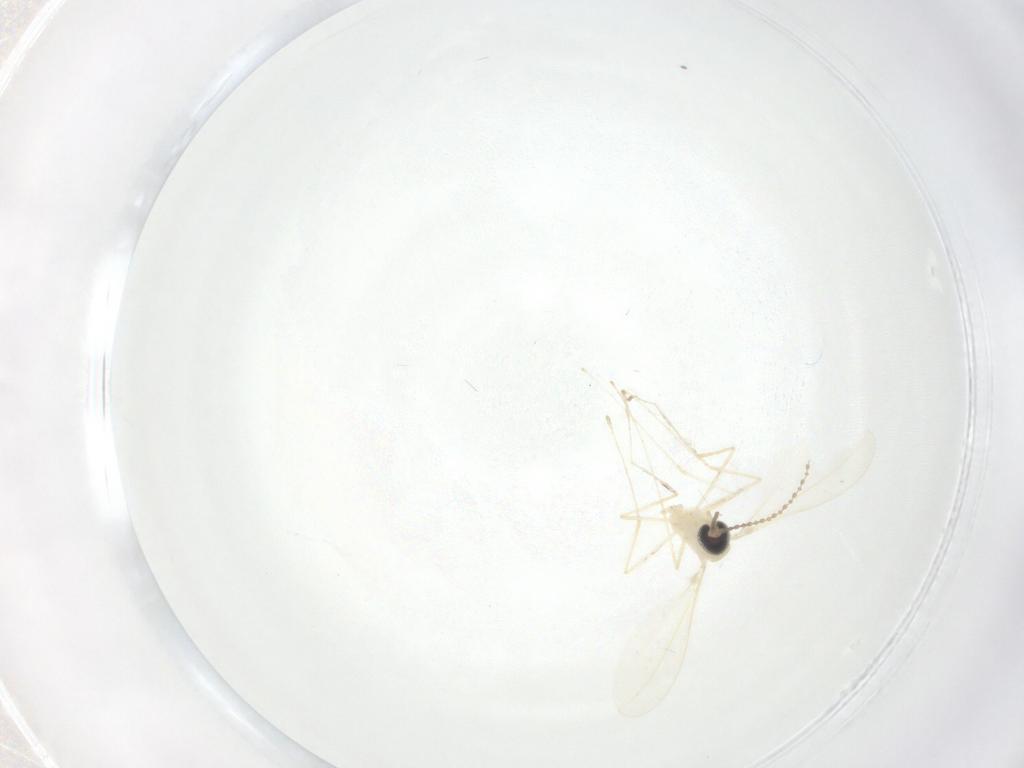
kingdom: Animalia
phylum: Arthropoda
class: Insecta
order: Diptera
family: Cecidomyiidae
